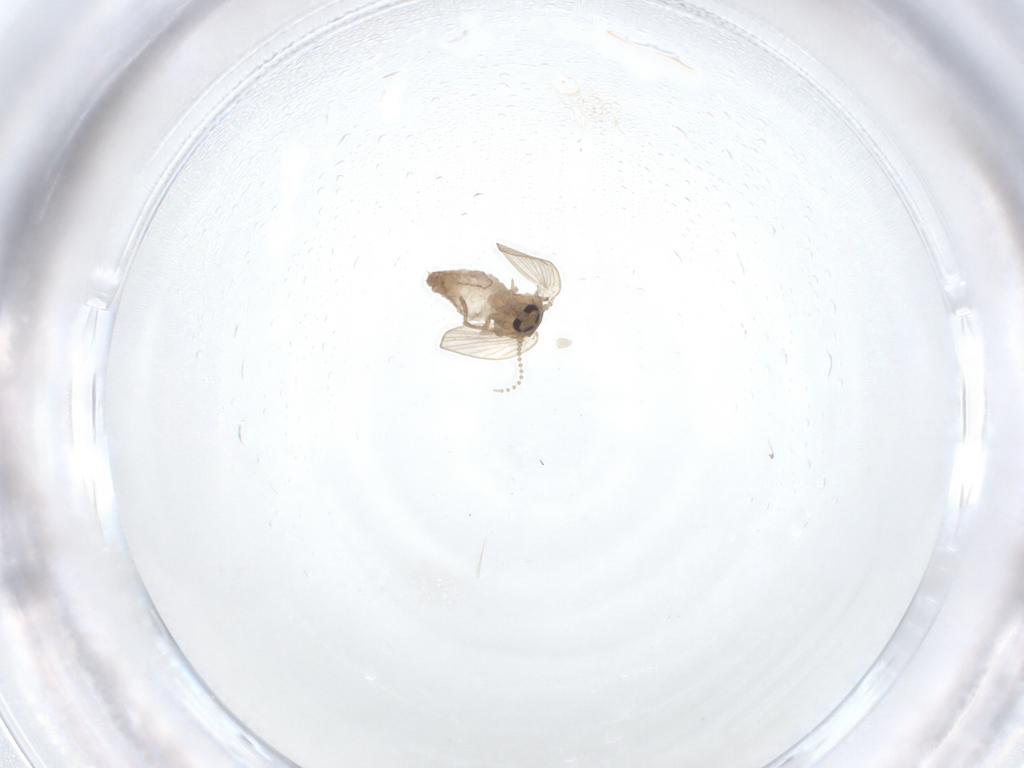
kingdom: Animalia
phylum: Arthropoda
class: Insecta
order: Diptera
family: Psychodidae
